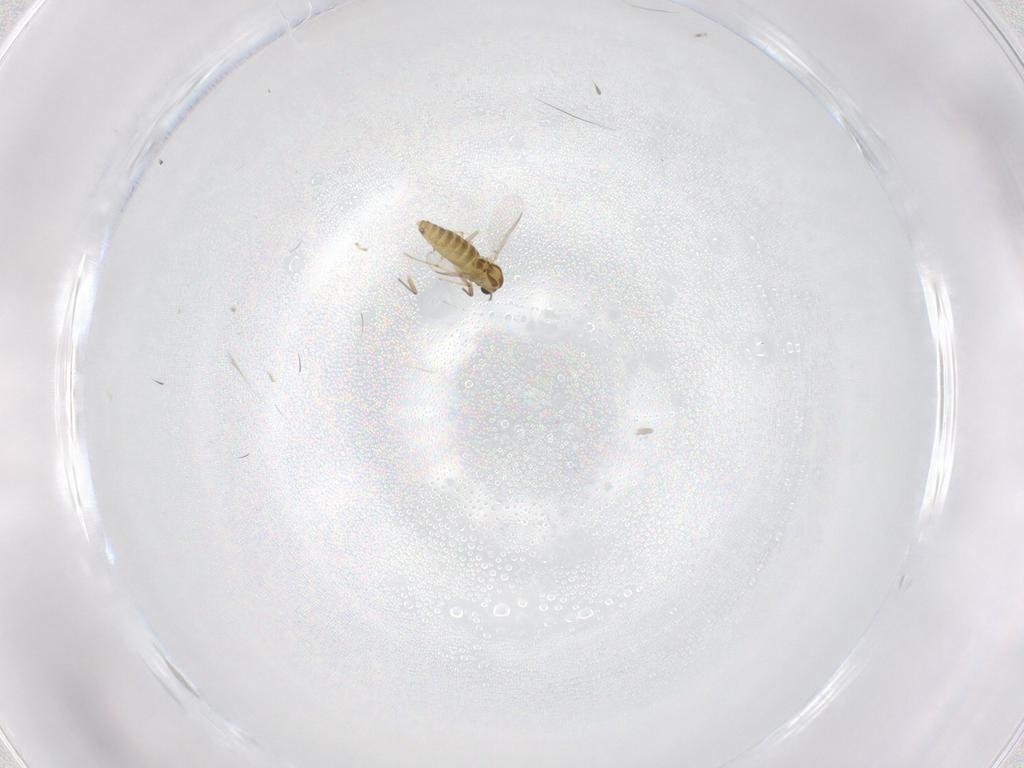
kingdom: Animalia
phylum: Arthropoda
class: Insecta
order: Diptera
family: Chironomidae
